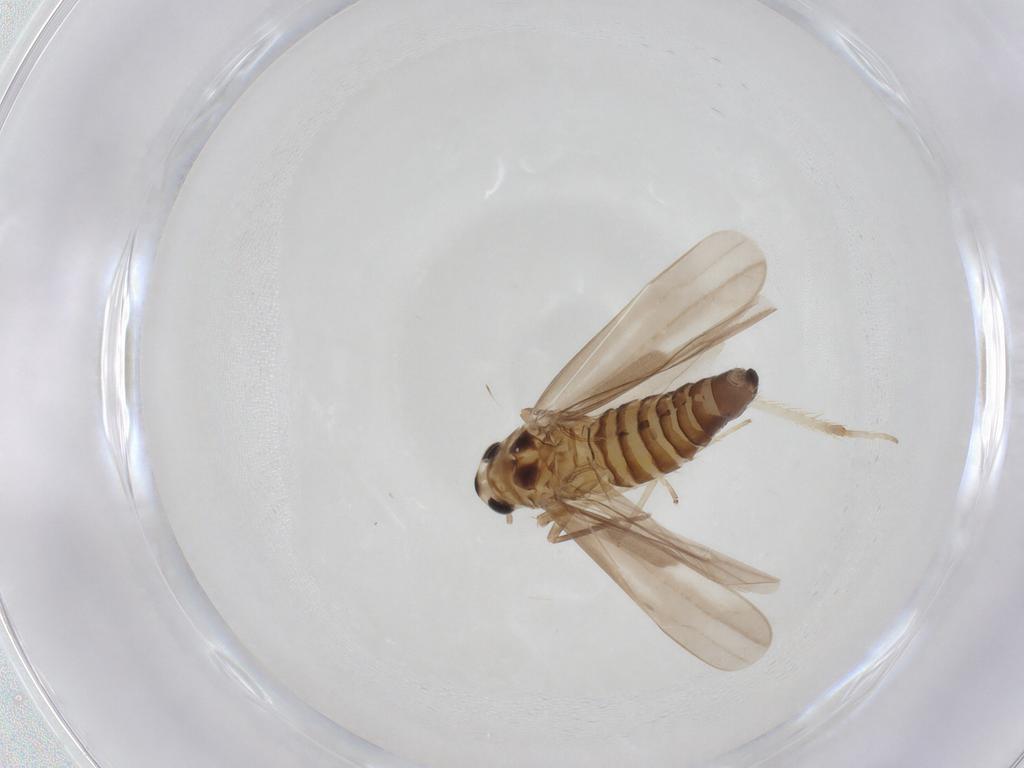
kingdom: Animalia
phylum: Arthropoda
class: Insecta
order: Hemiptera
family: Cicadellidae
